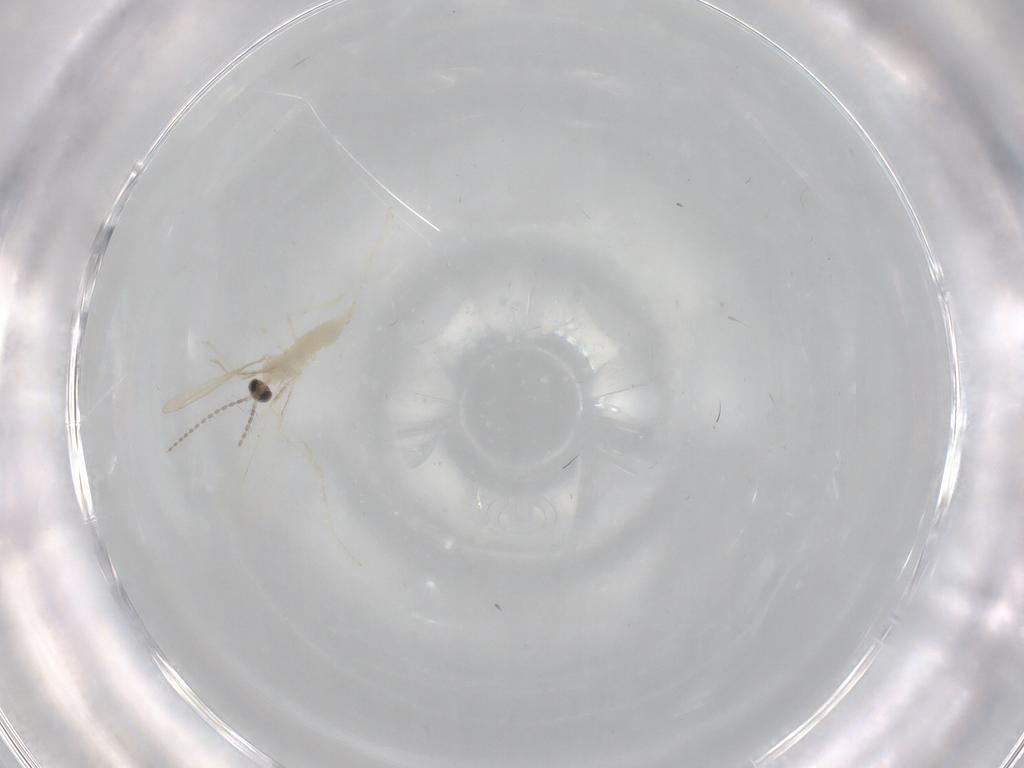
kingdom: Animalia
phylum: Arthropoda
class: Insecta
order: Diptera
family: Cecidomyiidae
